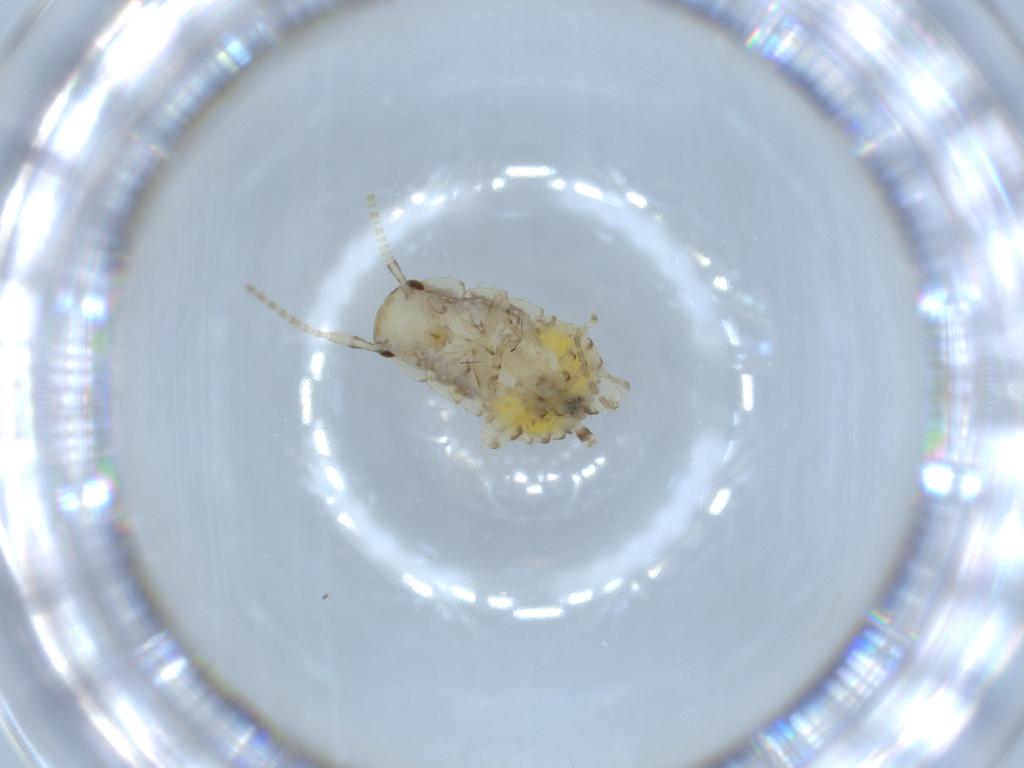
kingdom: Animalia
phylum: Arthropoda
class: Insecta
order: Blattodea
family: Ectobiidae
